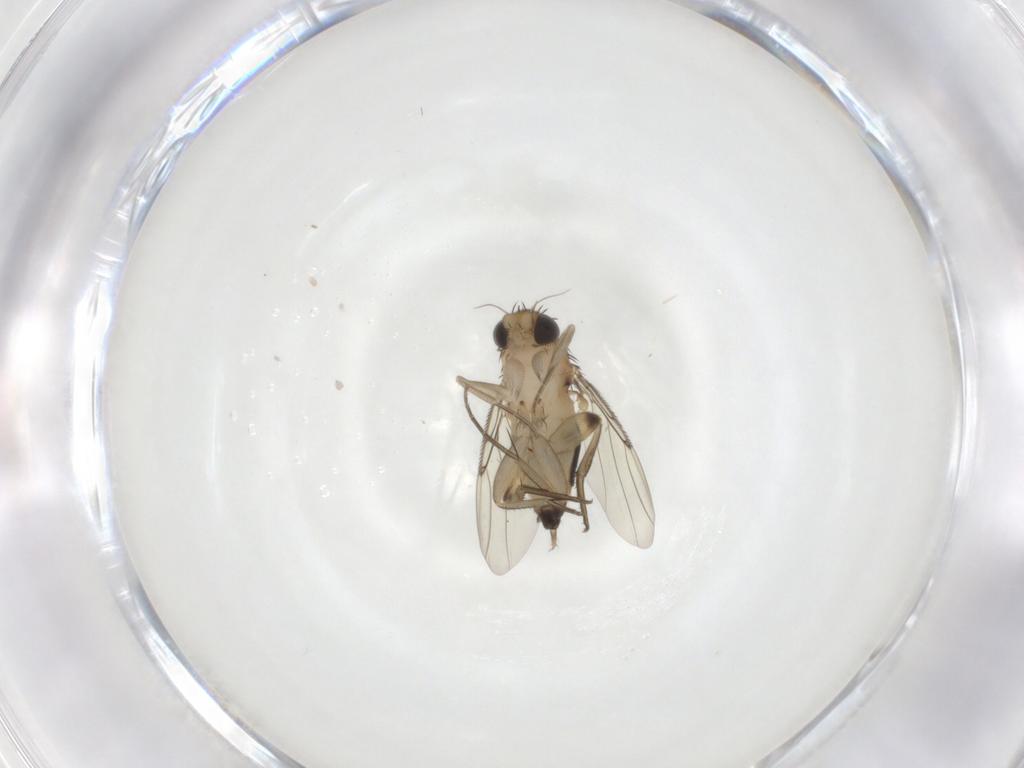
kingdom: Animalia
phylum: Arthropoda
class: Insecta
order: Diptera
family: Phoridae
